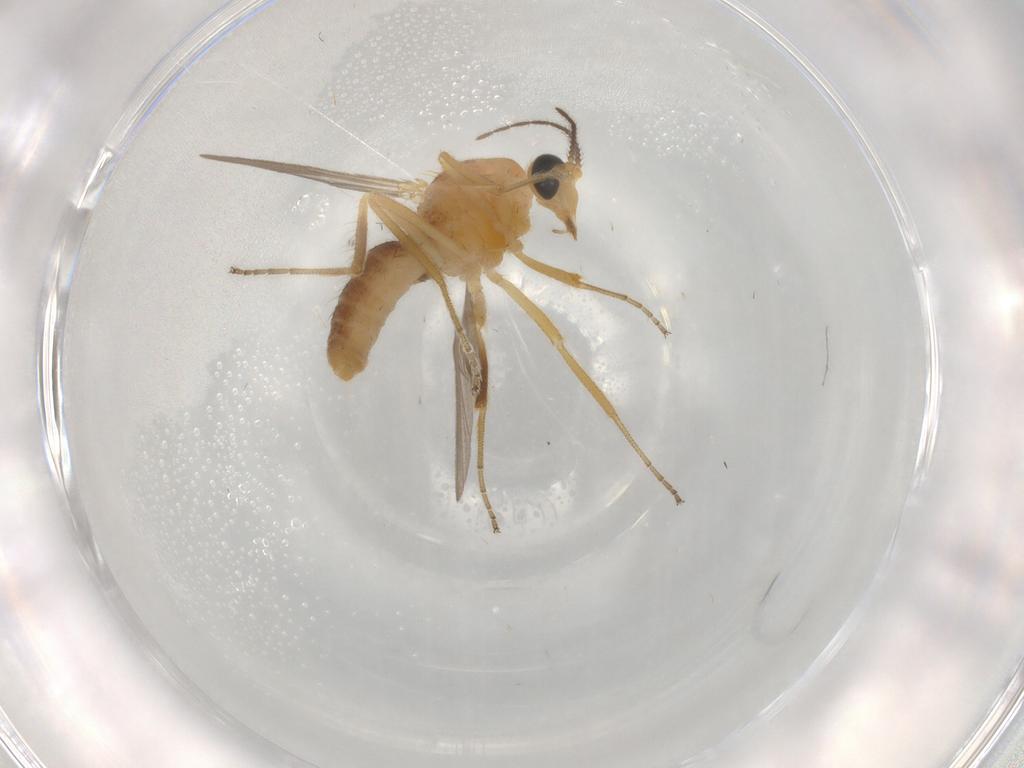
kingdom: Animalia
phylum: Arthropoda
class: Insecta
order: Diptera
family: Ceratopogonidae
